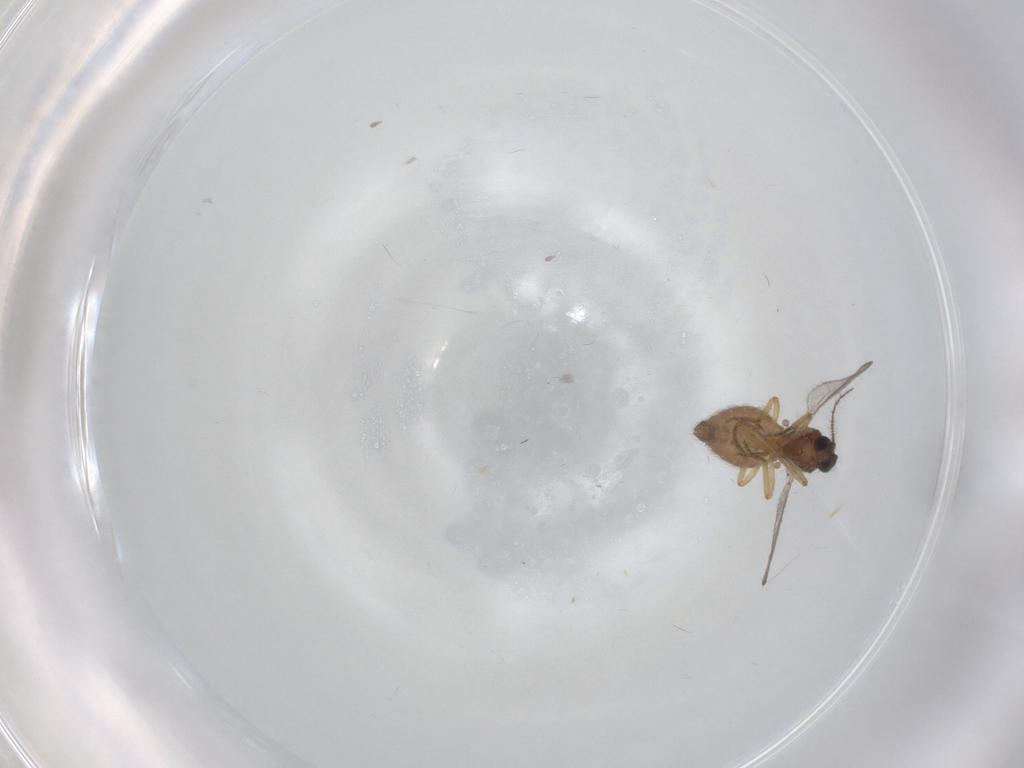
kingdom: Animalia
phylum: Arthropoda
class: Insecta
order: Diptera
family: Ceratopogonidae
